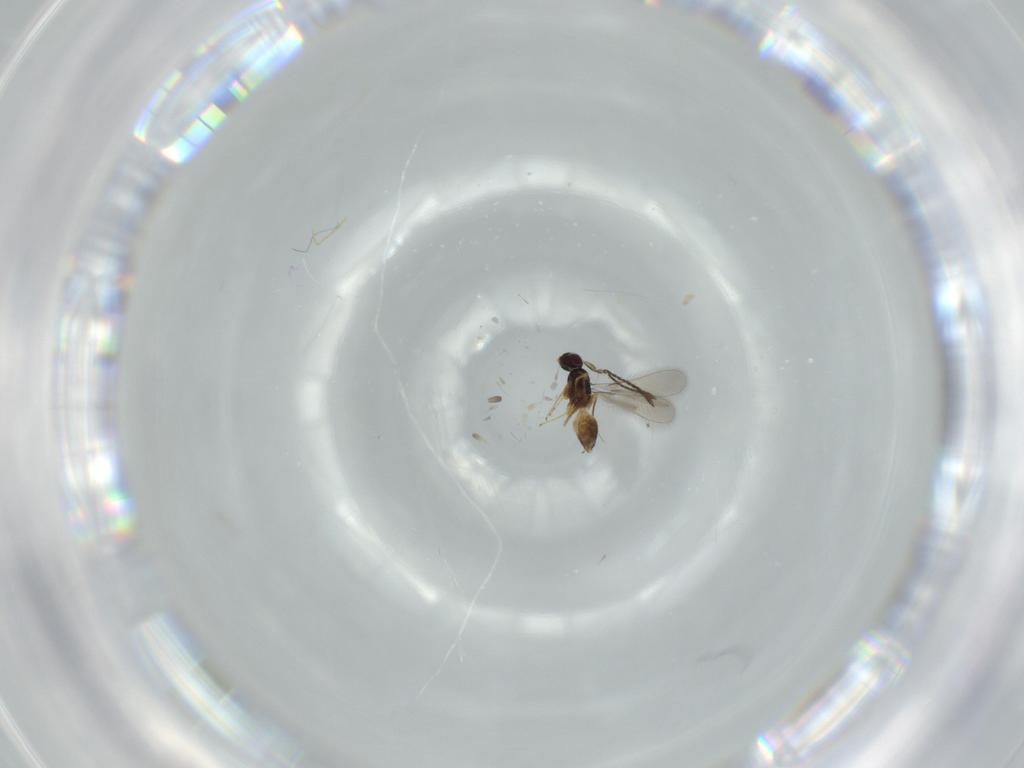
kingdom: Animalia
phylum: Arthropoda
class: Insecta
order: Hymenoptera
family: Mymaridae
